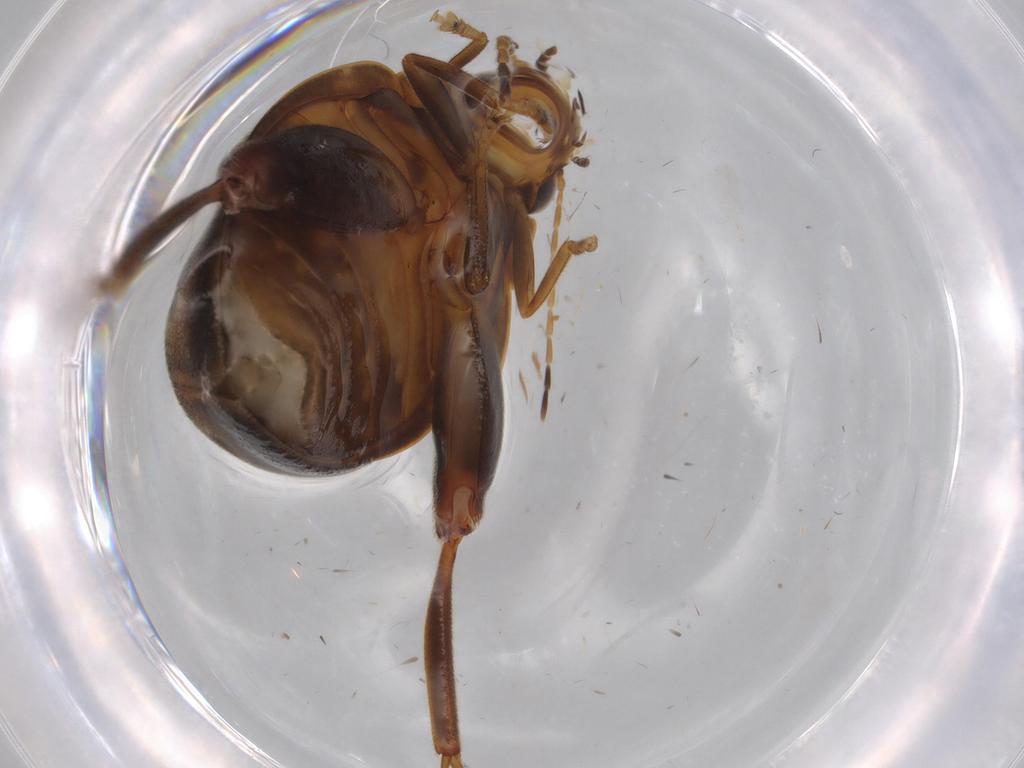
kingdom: Animalia
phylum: Arthropoda
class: Insecta
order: Coleoptera
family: Scirtidae
